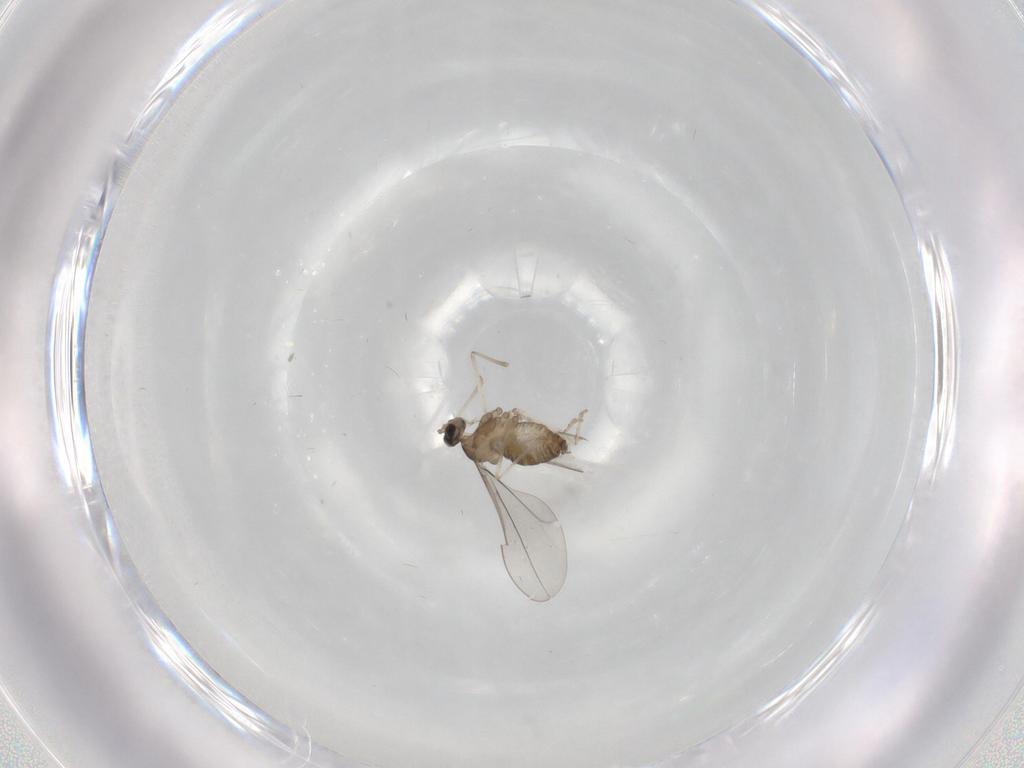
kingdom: Animalia
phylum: Arthropoda
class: Insecta
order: Diptera
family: Cecidomyiidae
